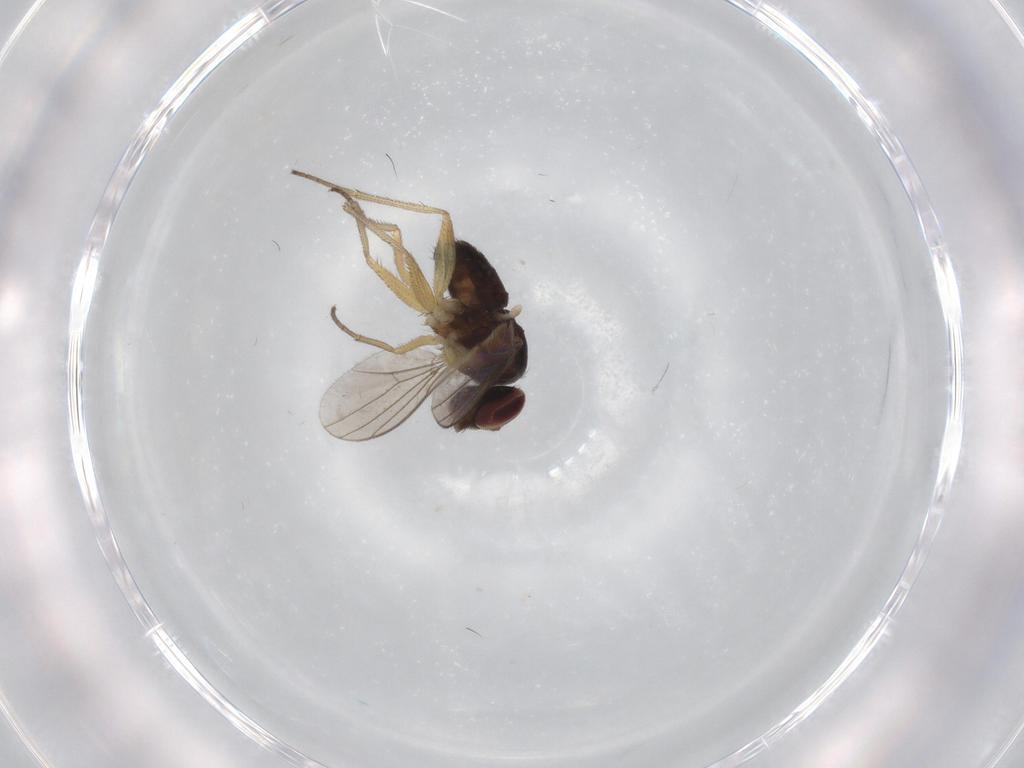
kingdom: Animalia
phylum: Arthropoda
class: Insecta
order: Diptera
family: Dolichopodidae
